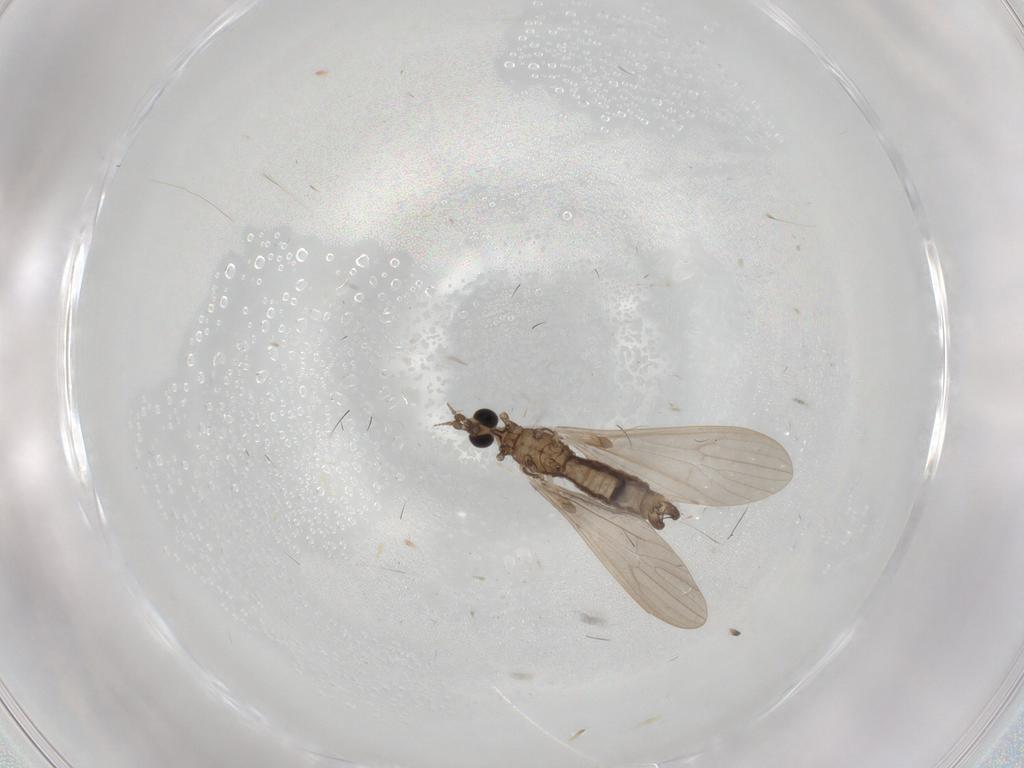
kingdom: Animalia
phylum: Arthropoda
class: Insecta
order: Diptera
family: Limoniidae
